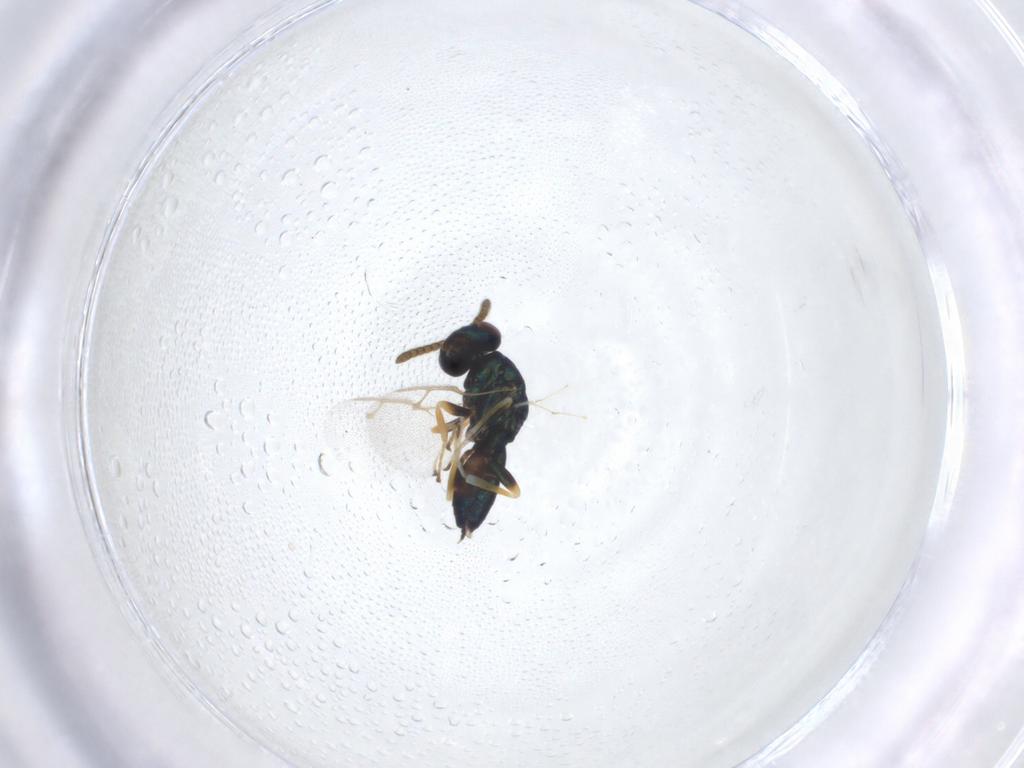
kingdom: Animalia
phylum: Arthropoda
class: Insecta
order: Hymenoptera
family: Pteromalidae
